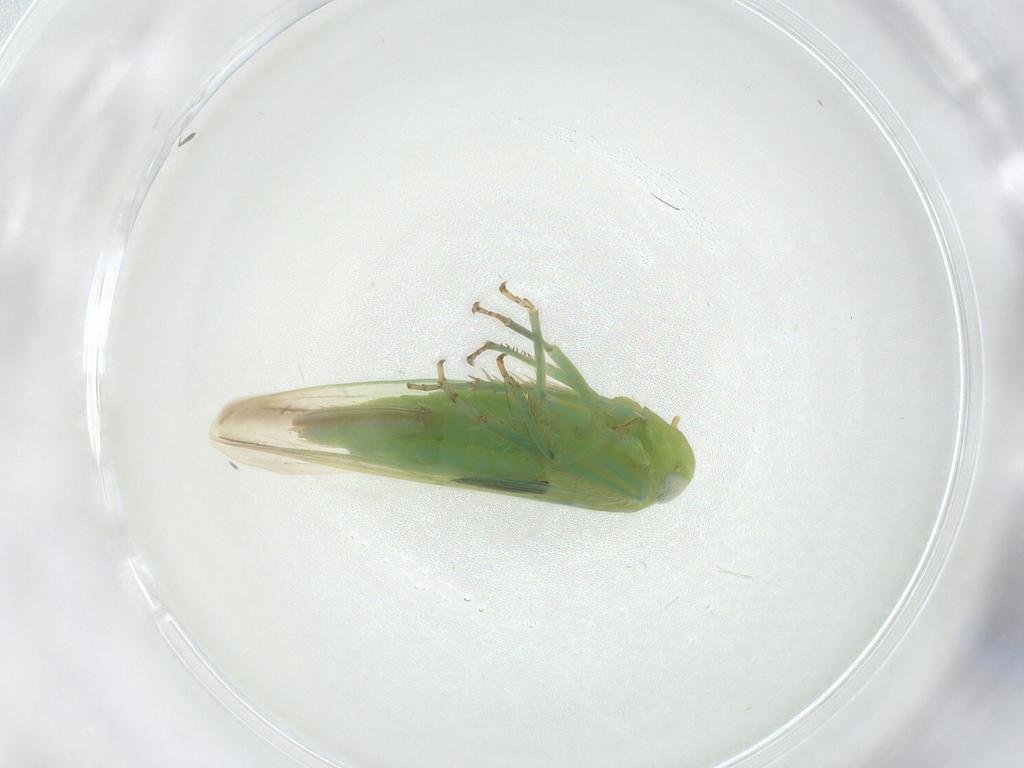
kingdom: Animalia
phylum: Arthropoda
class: Insecta
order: Hemiptera
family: Cicadellidae
